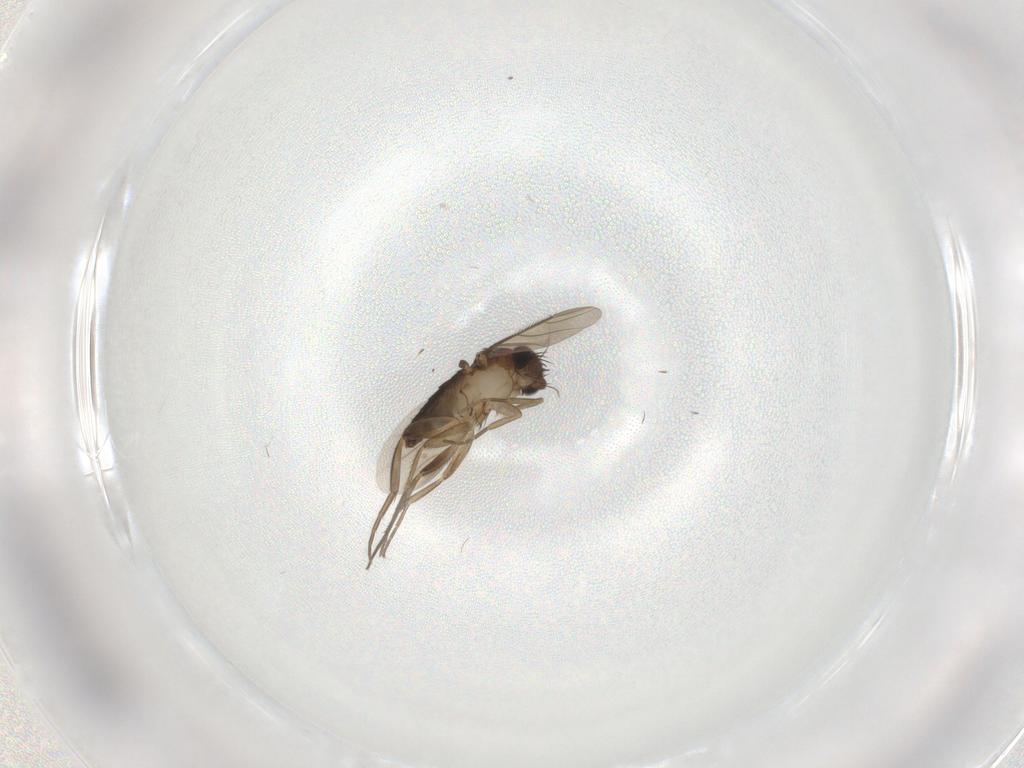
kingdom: Animalia
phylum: Arthropoda
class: Insecta
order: Diptera
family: Phoridae
